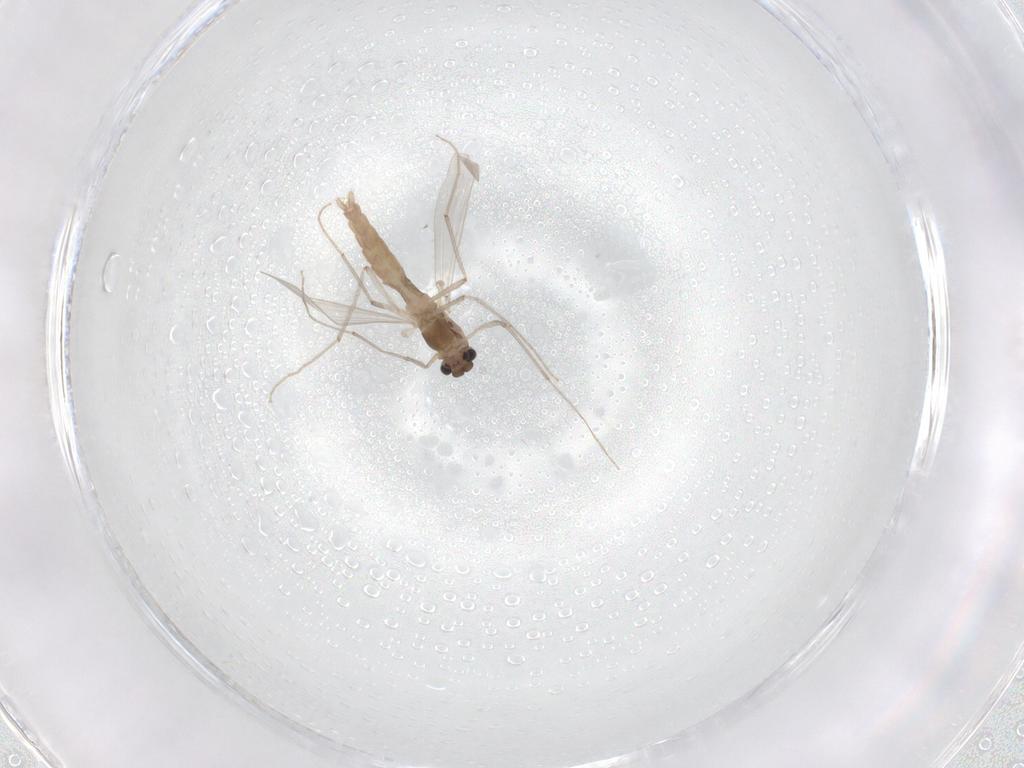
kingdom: Animalia
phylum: Arthropoda
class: Insecta
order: Diptera
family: Chironomidae
